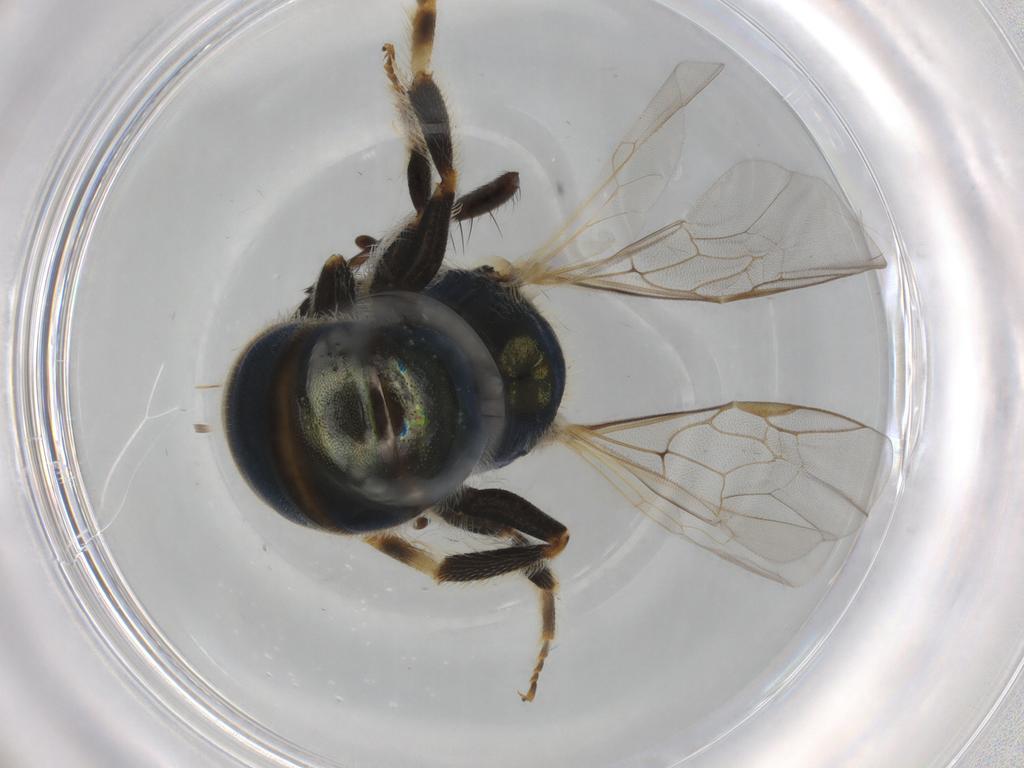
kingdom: Animalia
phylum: Arthropoda
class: Insecta
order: Hymenoptera
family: Halictidae
